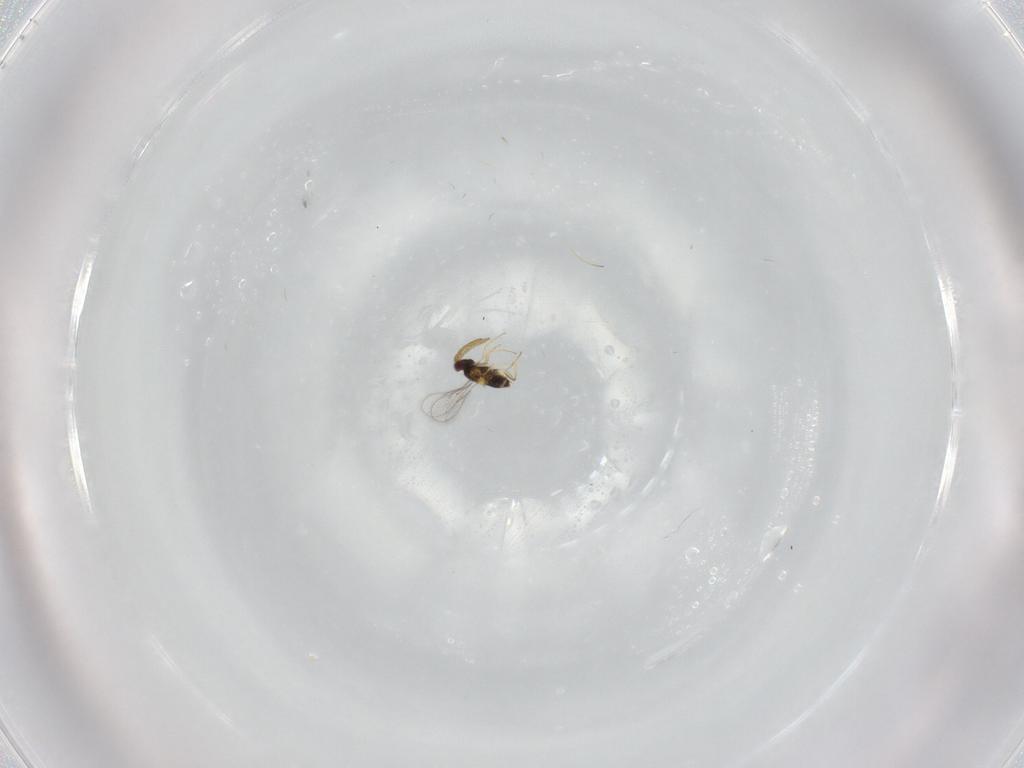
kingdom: Animalia
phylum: Arthropoda
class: Insecta
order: Hymenoptera
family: Aphelinidae
